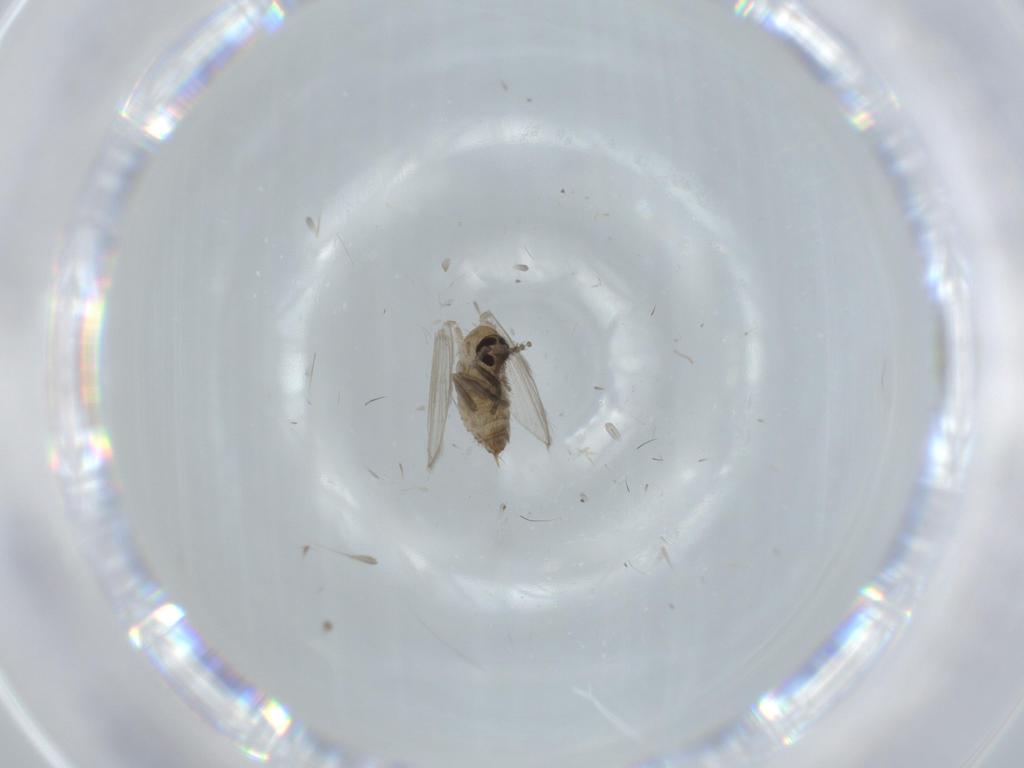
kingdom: Animalia
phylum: Arthropoda
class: Insecta
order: Diptera
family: Psychodidae
